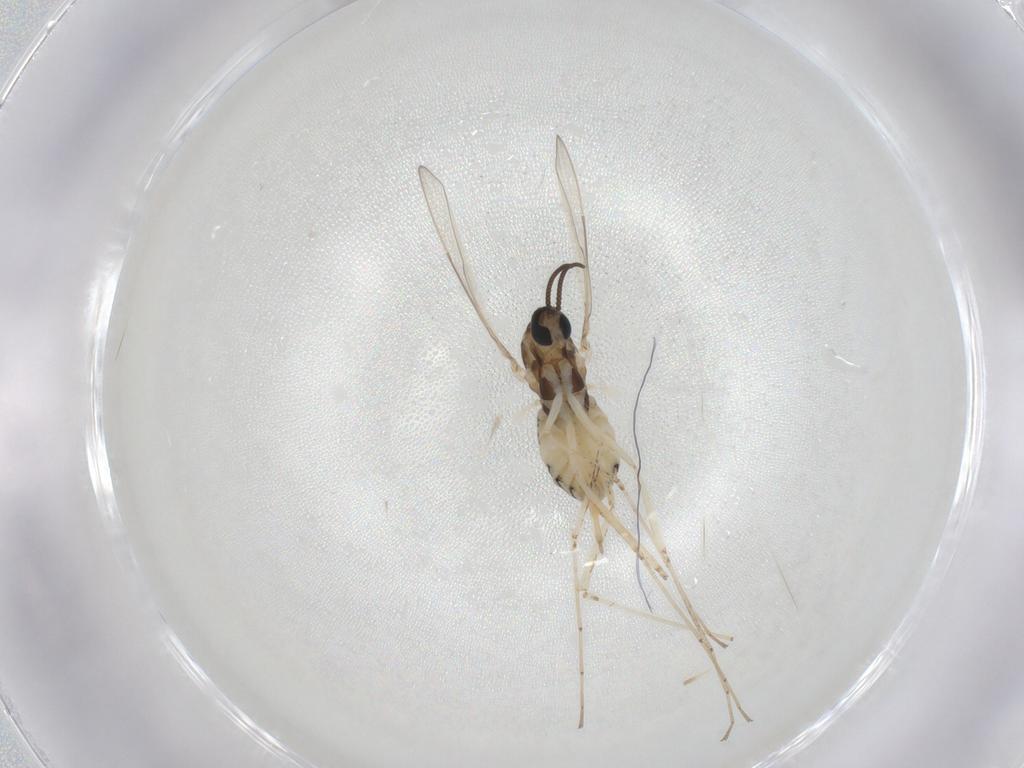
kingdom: Animalia
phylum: Arthropoda
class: Insecta
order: Diptera
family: Cecidomyiidae
